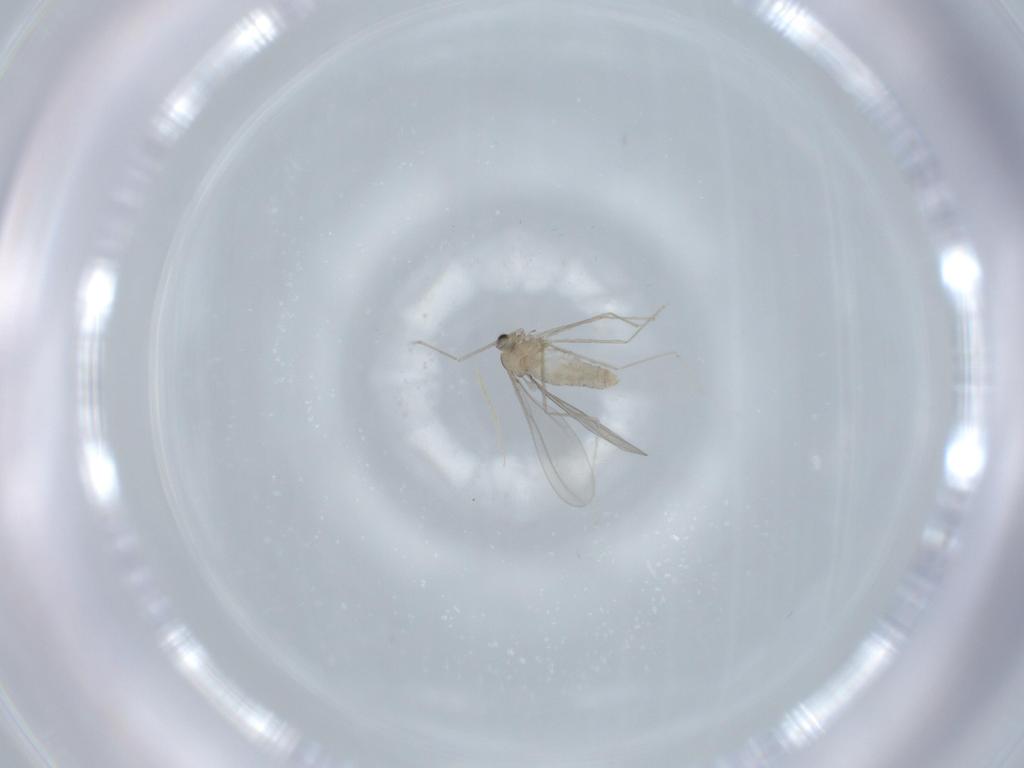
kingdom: Animalia
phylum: Arthropoda
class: Insecta
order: Diptera
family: Cecidomyiidae
